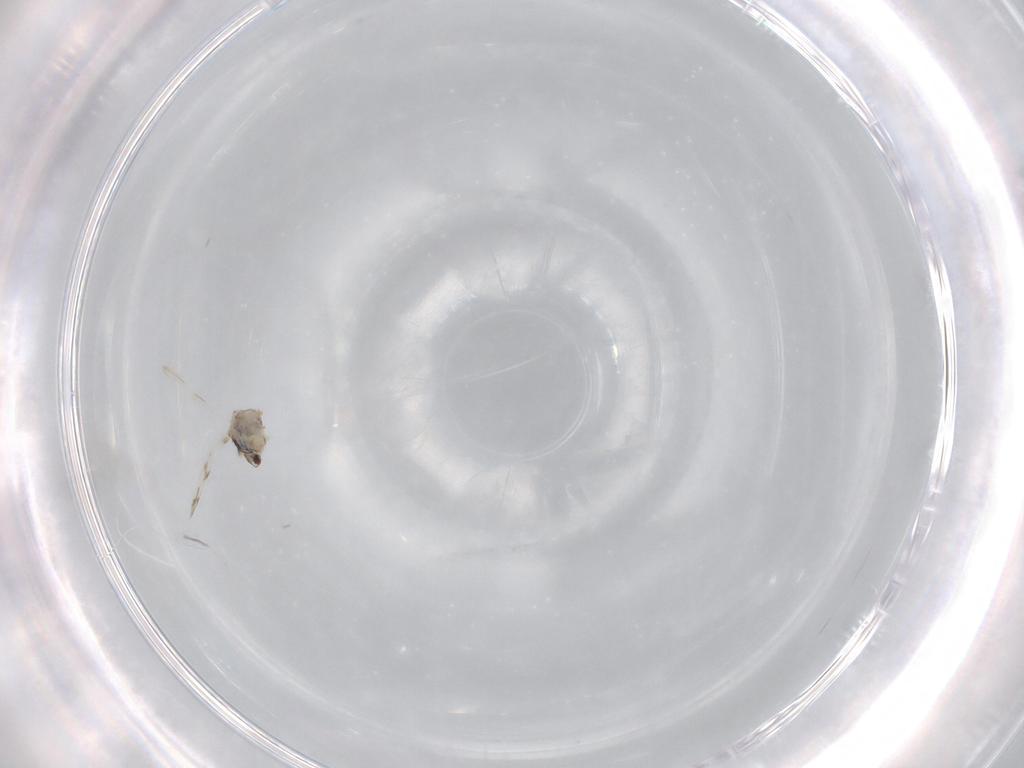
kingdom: Animalia
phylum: Arthropoda
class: Insecta
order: Hemiptera
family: Aleyrodidae
